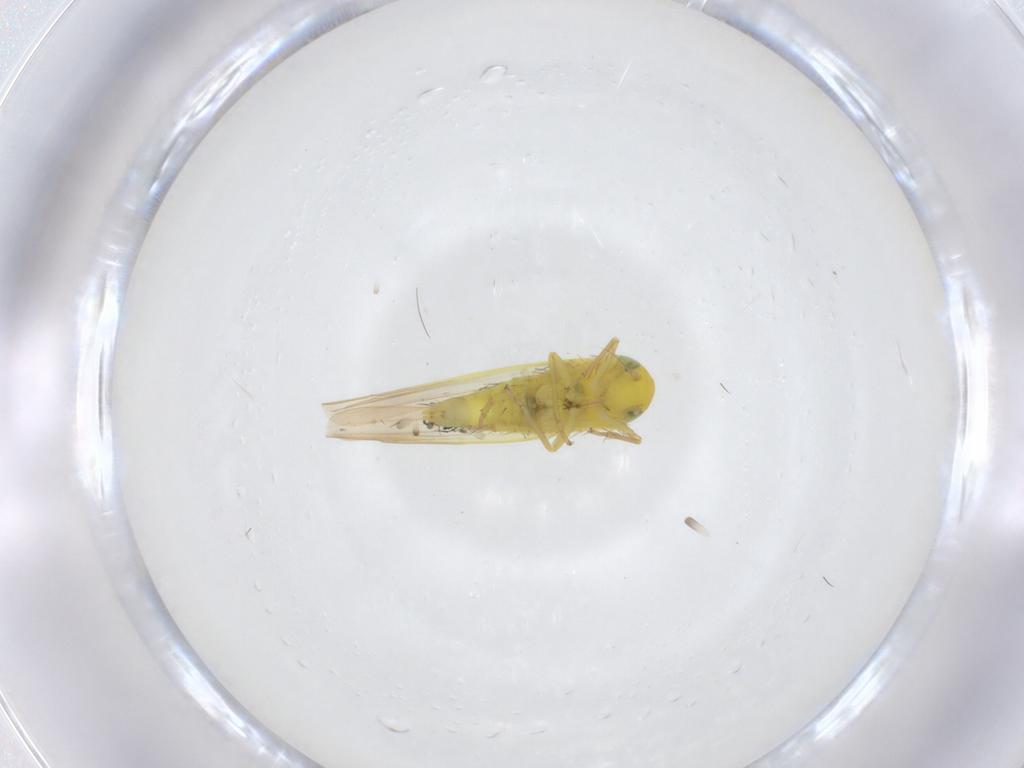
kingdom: Animalia
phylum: Arthropoda
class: Insecta
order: Hemiptera
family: Cicadellidae
